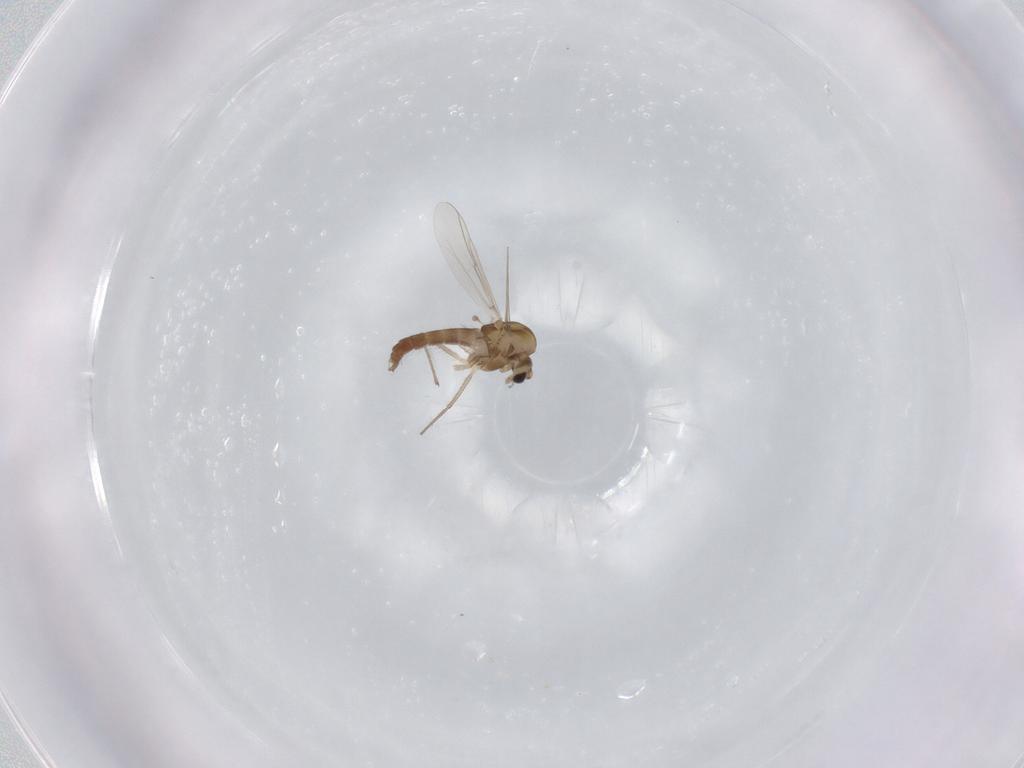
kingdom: Animalia
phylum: Arthropoda
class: Insecta
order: Diptera
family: Chironomidae
